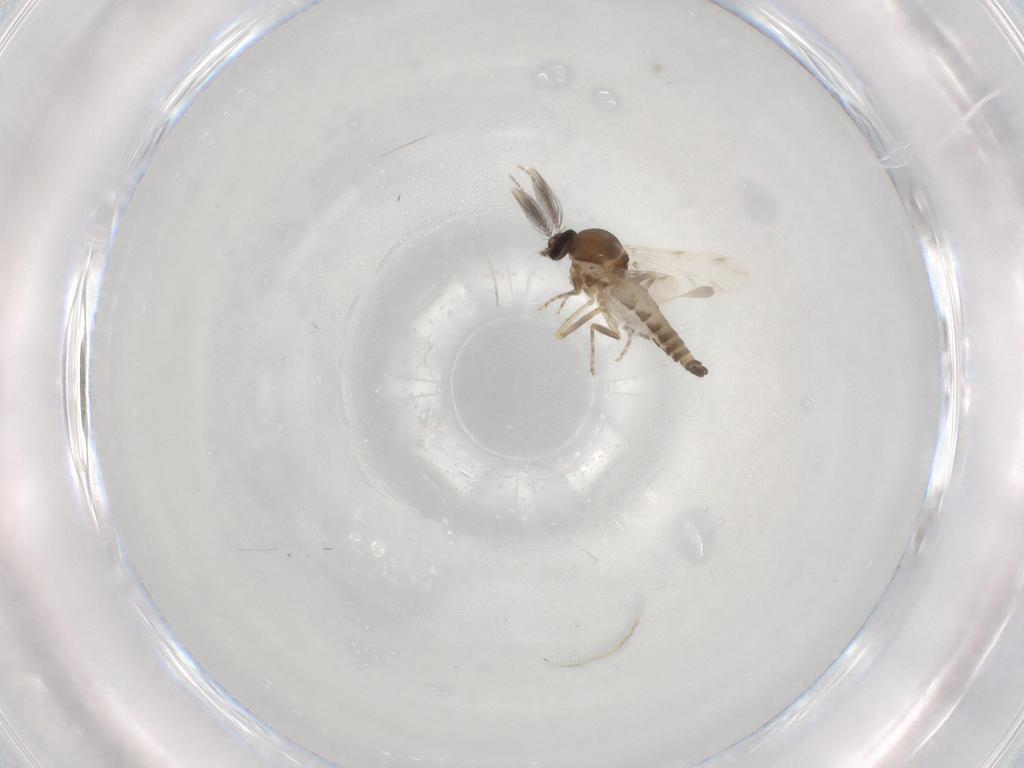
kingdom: Animalia
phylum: Arthropoda
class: Insecta
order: Diptera
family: Ceratopogonidae
